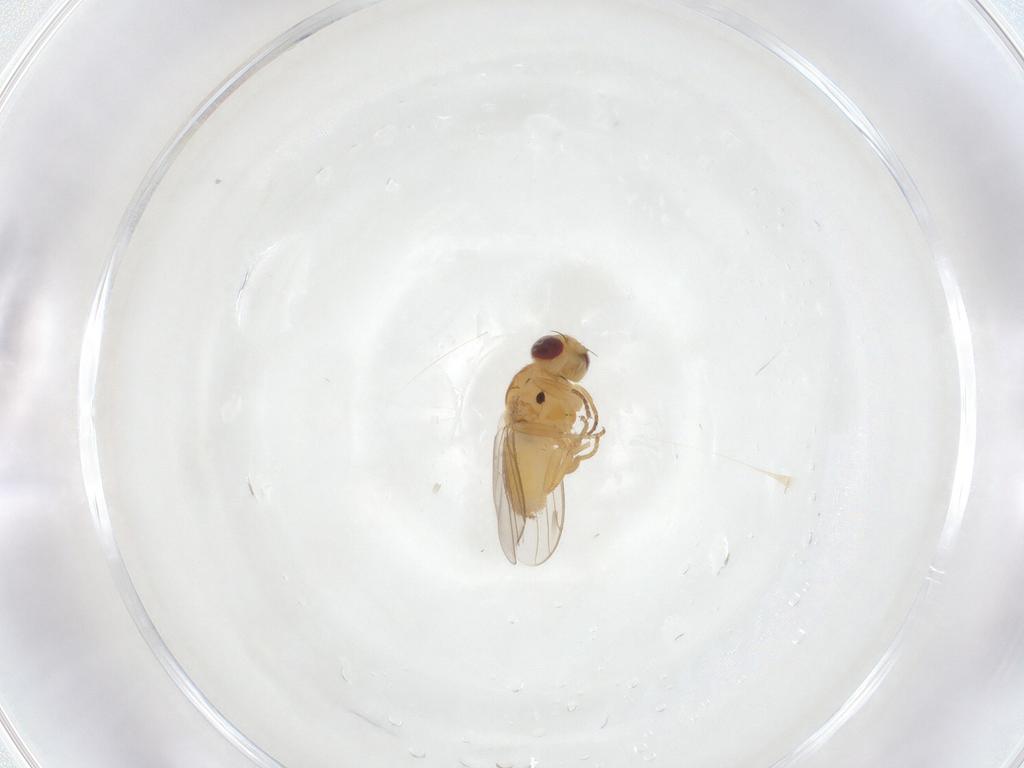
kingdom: Animalia
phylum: Arthropoda
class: Insecta
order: Diptera
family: Chloropidae
